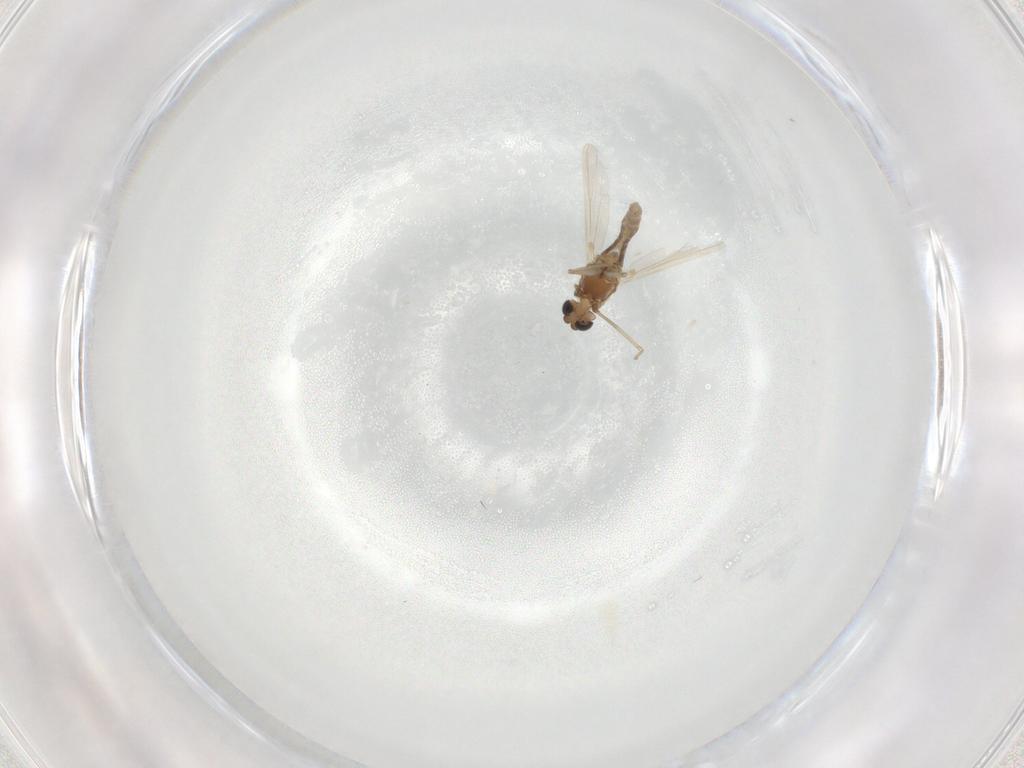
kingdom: Animalia
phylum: Arthropoda
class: Insecta
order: Diptera
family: Chironomidae
